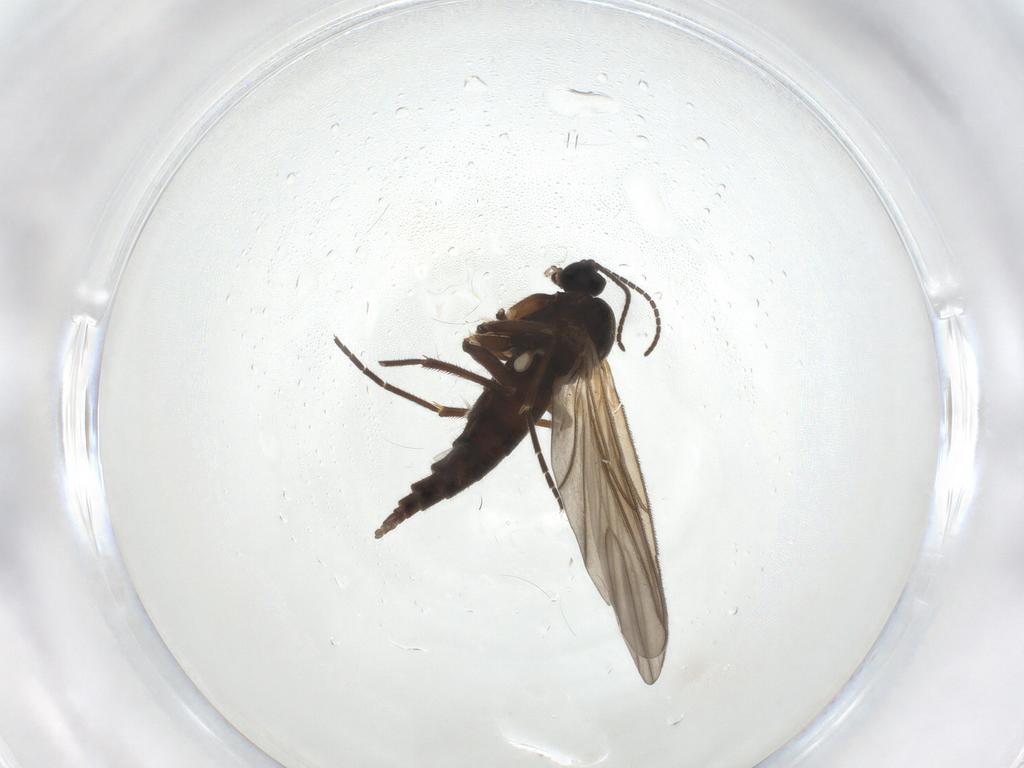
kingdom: Animalia
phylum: Arthropoda
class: Insecta
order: Diptera
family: Sciaridae
